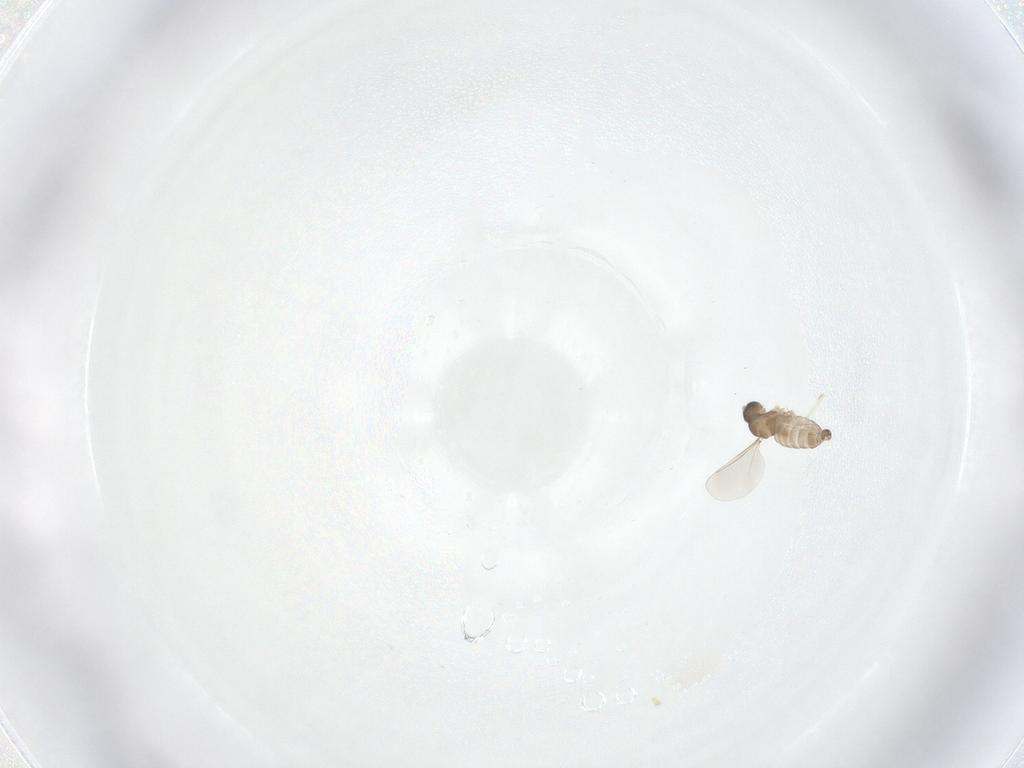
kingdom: Animalia
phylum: Arthropoda
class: Insecta
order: Diptera
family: Cecidomyiidae
